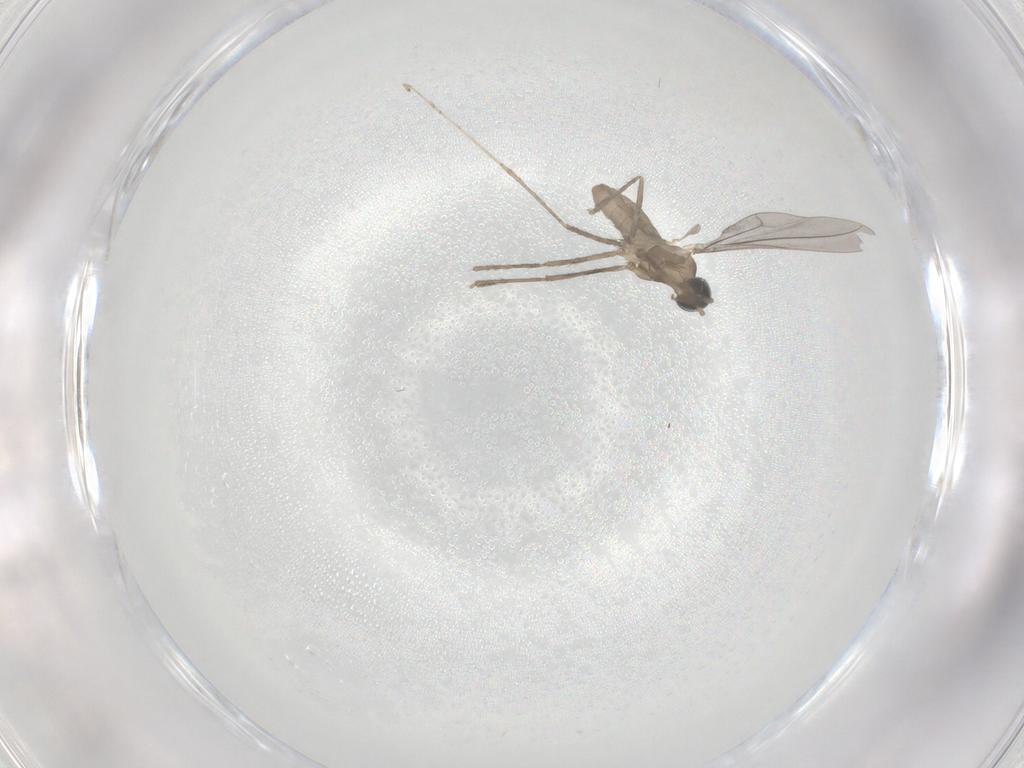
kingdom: Animalia
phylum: Arthropoda
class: Insecta
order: Diptera
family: Cecidomyiidae
